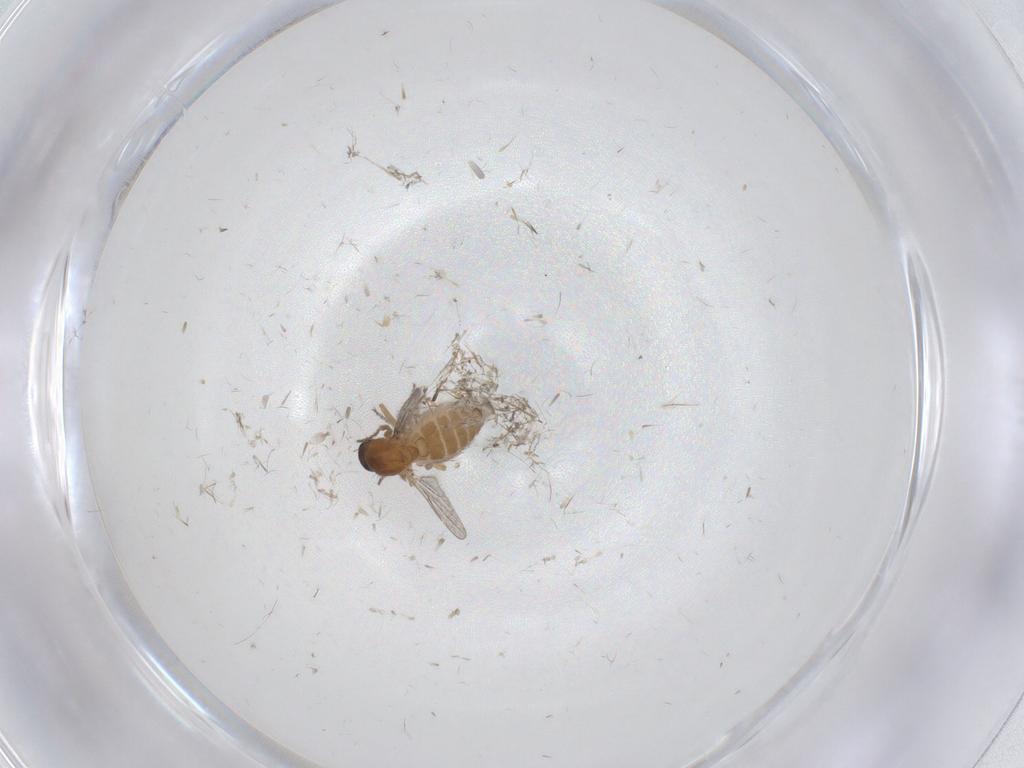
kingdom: Animalia
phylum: Arthropoda
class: Insecta
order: Diptera
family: Ceratopogonidae
